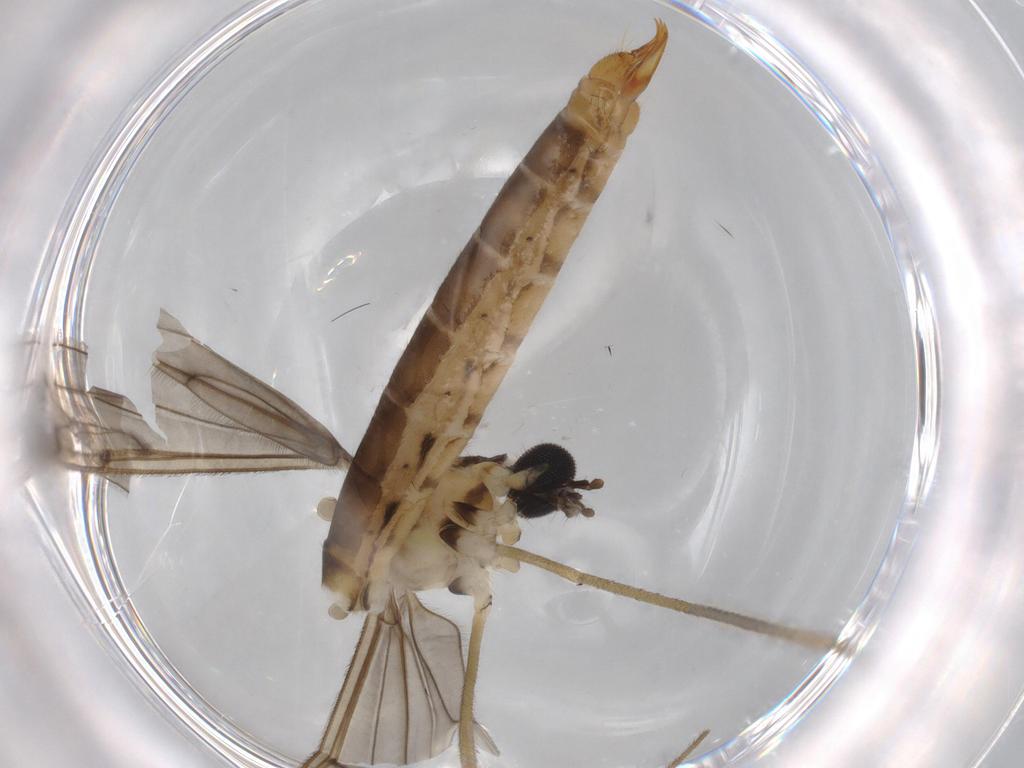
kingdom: Animalia
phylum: Arthropoda
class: Insecta
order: Diptera
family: Limoniidae
